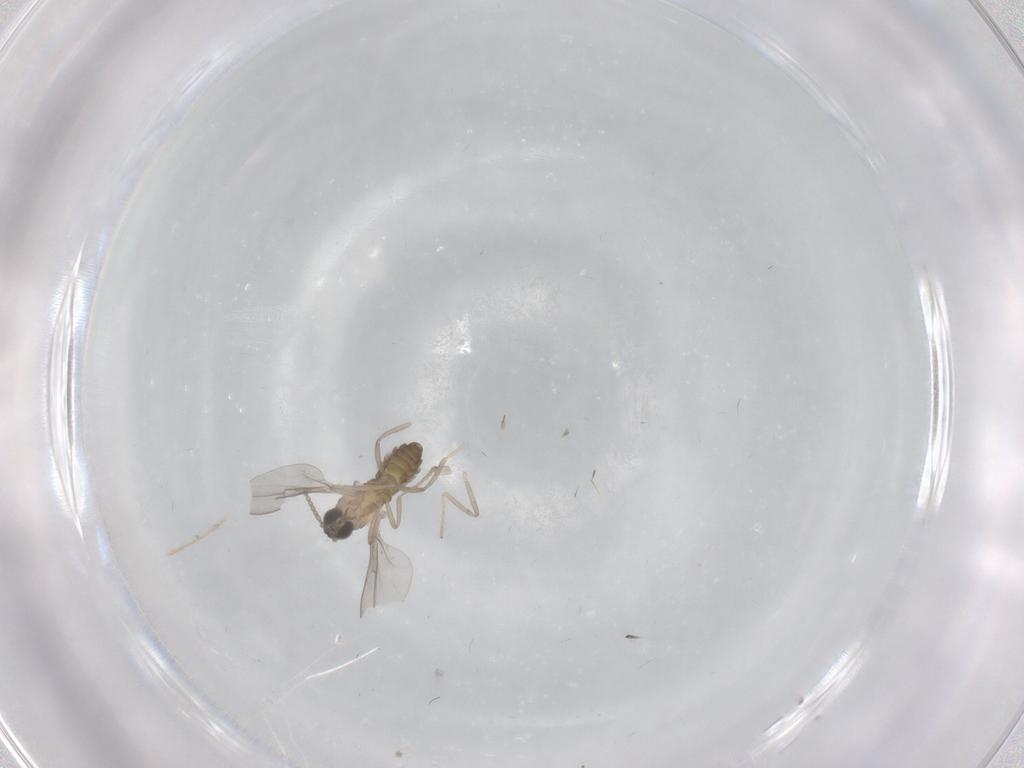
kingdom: Animalia
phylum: Arthropoda
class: Insecta
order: Diptera
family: Cecidomyiidae
